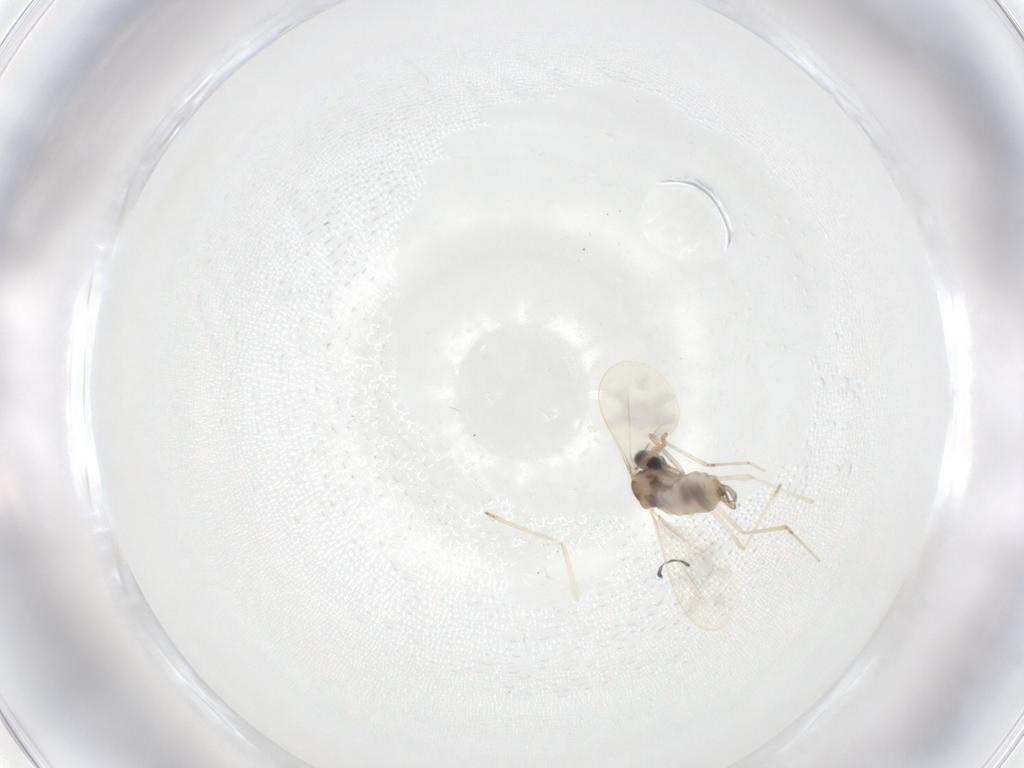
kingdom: Animalia
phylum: Arthropoda
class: Insecta
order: Diptera
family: Cecidomyiidae
